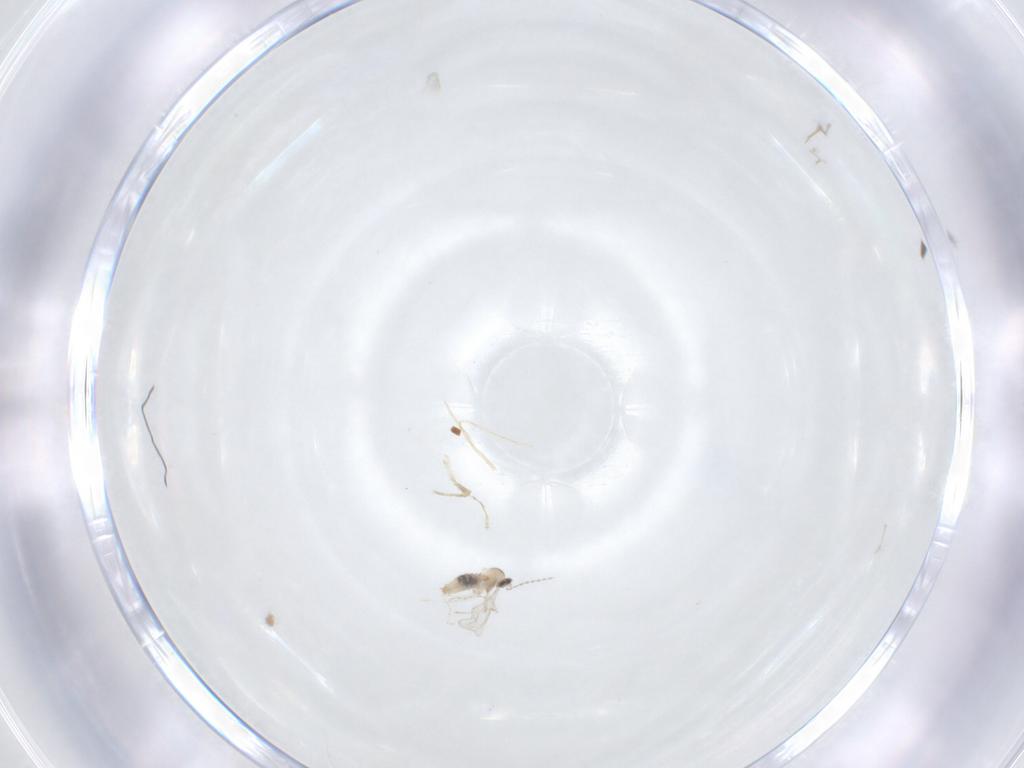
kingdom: Animalia
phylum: Arthropoda
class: Insecta
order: Diptera
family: Cecidomyiidae
